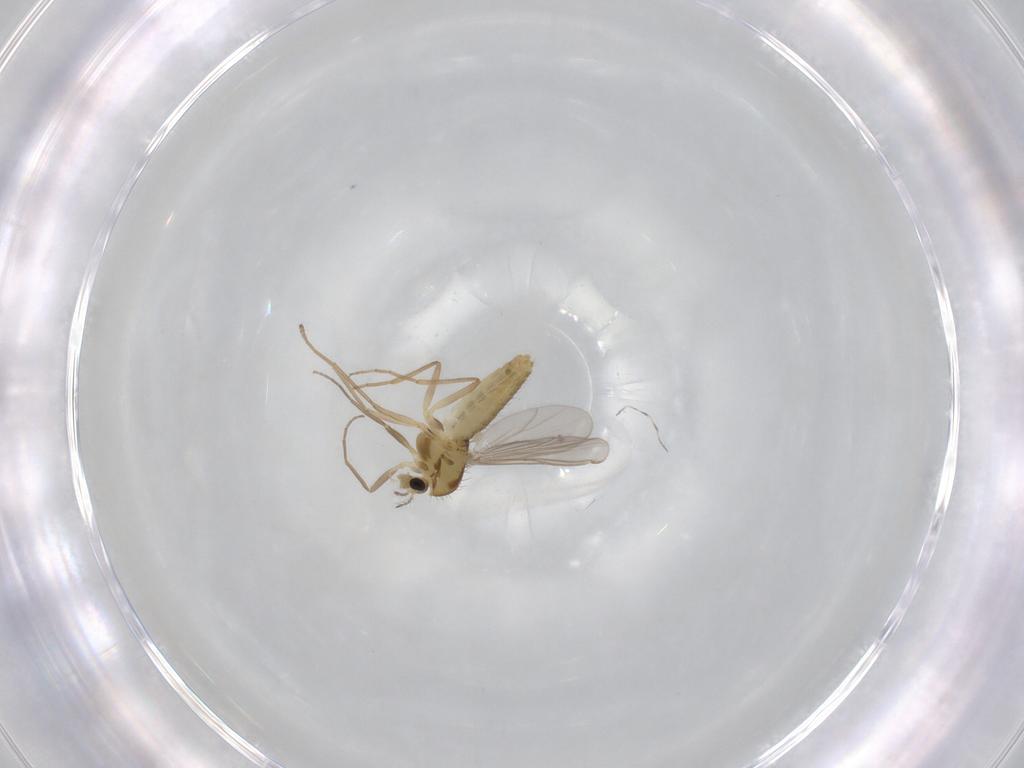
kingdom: Animalia
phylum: Arthropoda
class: Insecta
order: Diptera
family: Chironomidae
